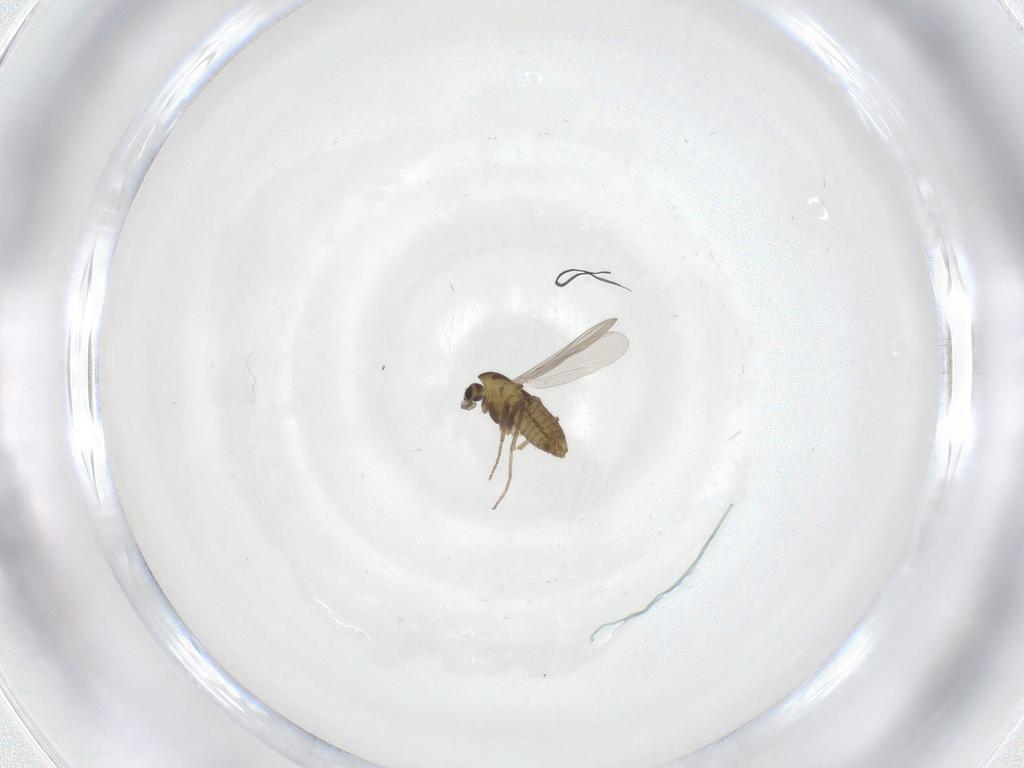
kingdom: Animalia
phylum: Arthropoda
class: Insecta
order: Diptera
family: Chironomidae
